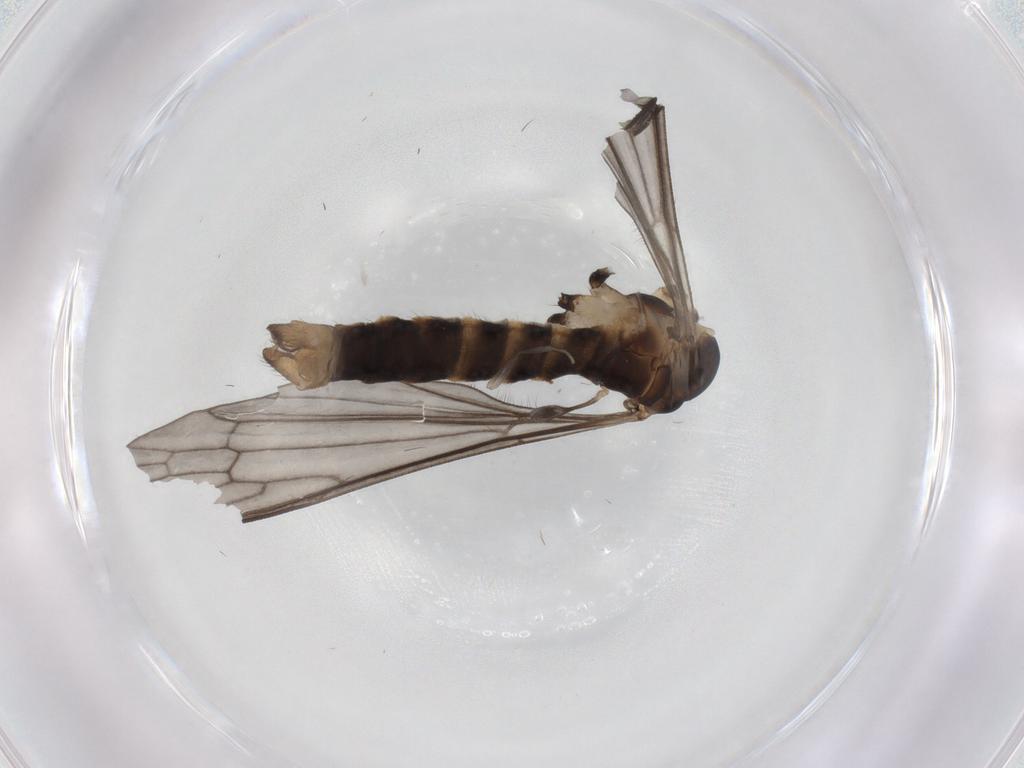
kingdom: Animalia
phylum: Arthropoda
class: Insecta
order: Diptera
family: Limoniidae
